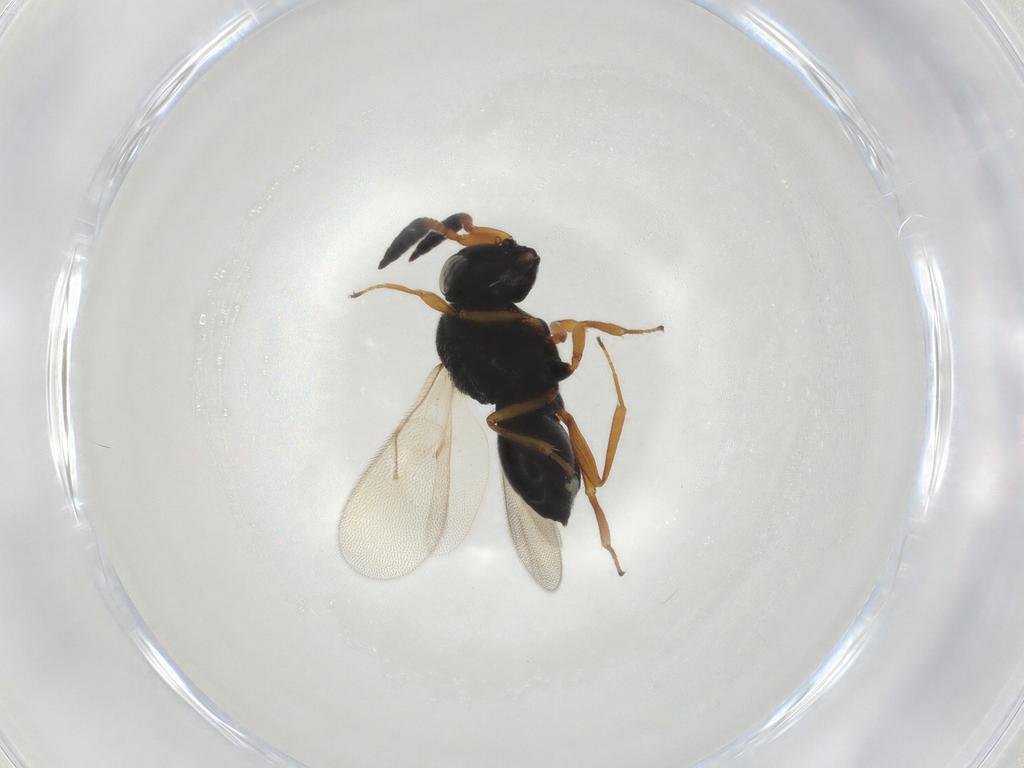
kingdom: Animalia
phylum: Arthropoda
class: Insecta
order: Hymenoptera
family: Scelionidae
